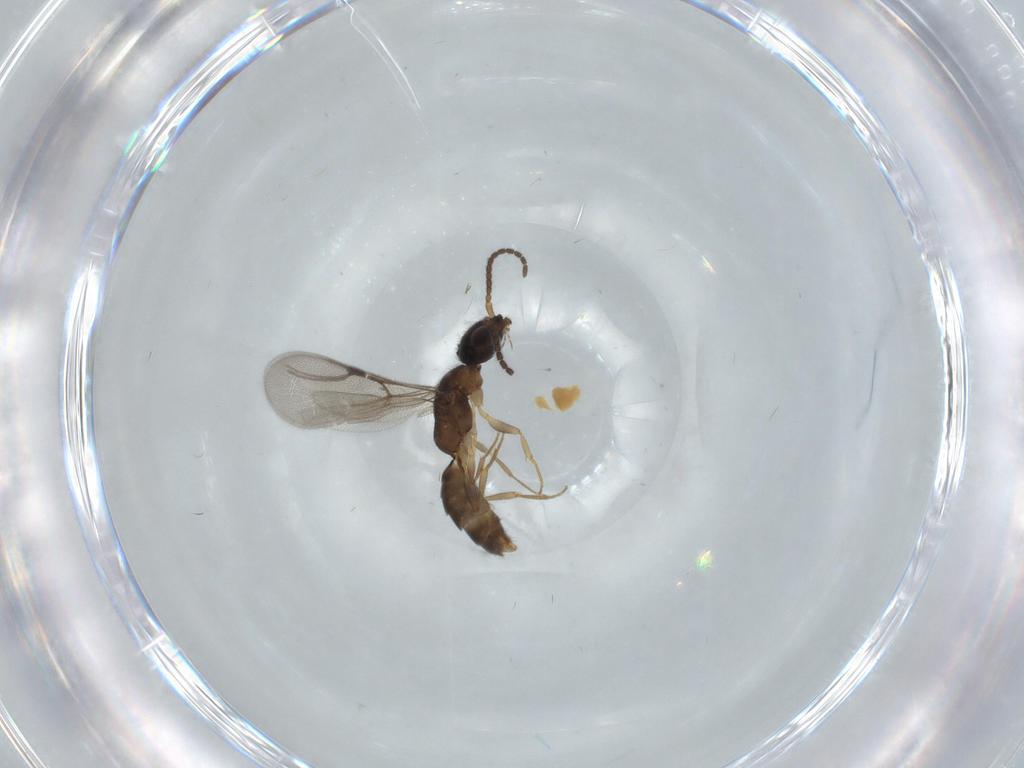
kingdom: Animalia
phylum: Arthropoda
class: Insecta
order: Hymenoptera
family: Bethylidae
